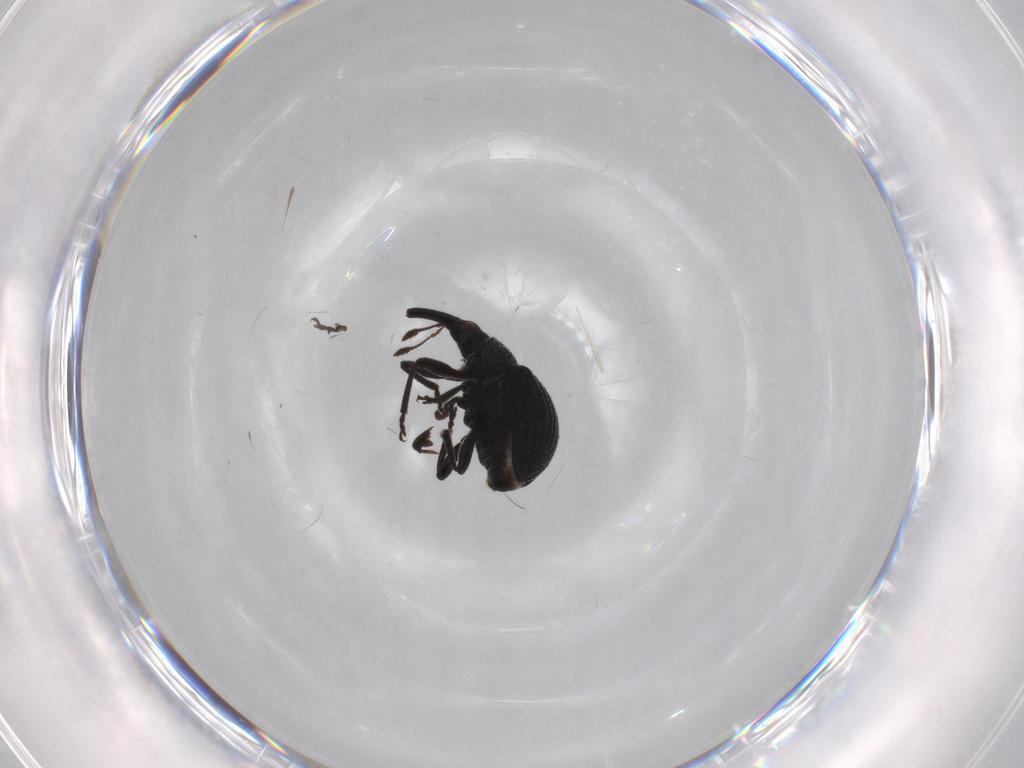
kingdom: Animalia
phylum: Arthropoda
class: Insecta
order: Coleoptera
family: Brentidae
